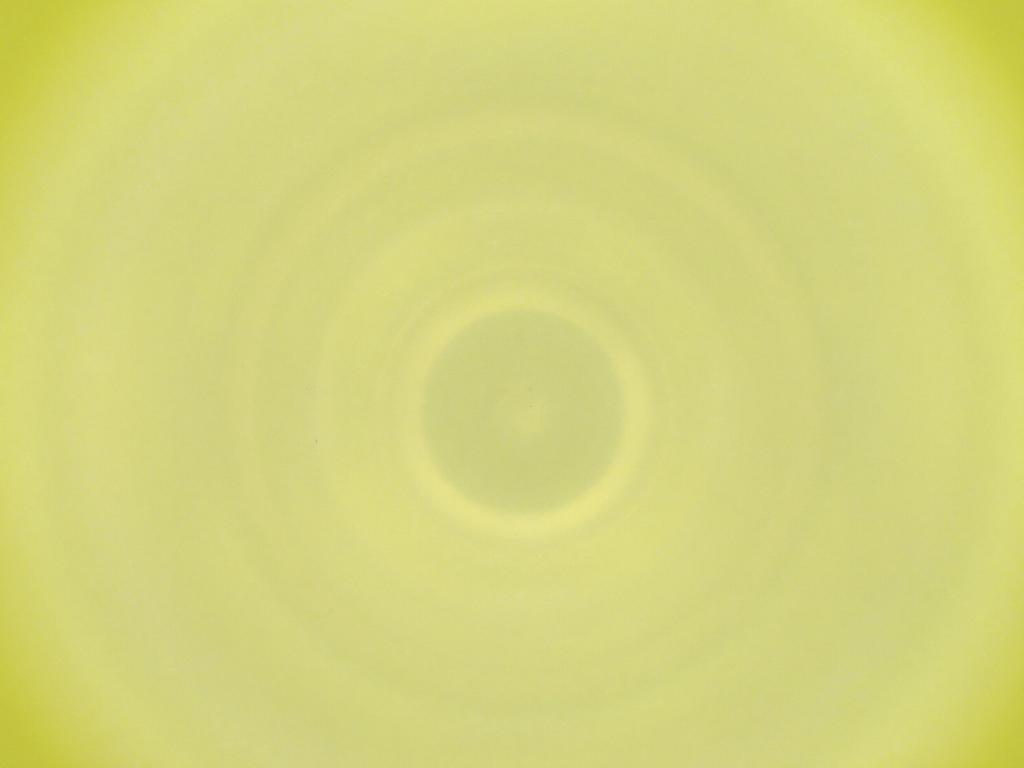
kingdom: Animalia
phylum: Arthropoda
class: Insecta
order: Diptera
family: Cecidomyiidae
